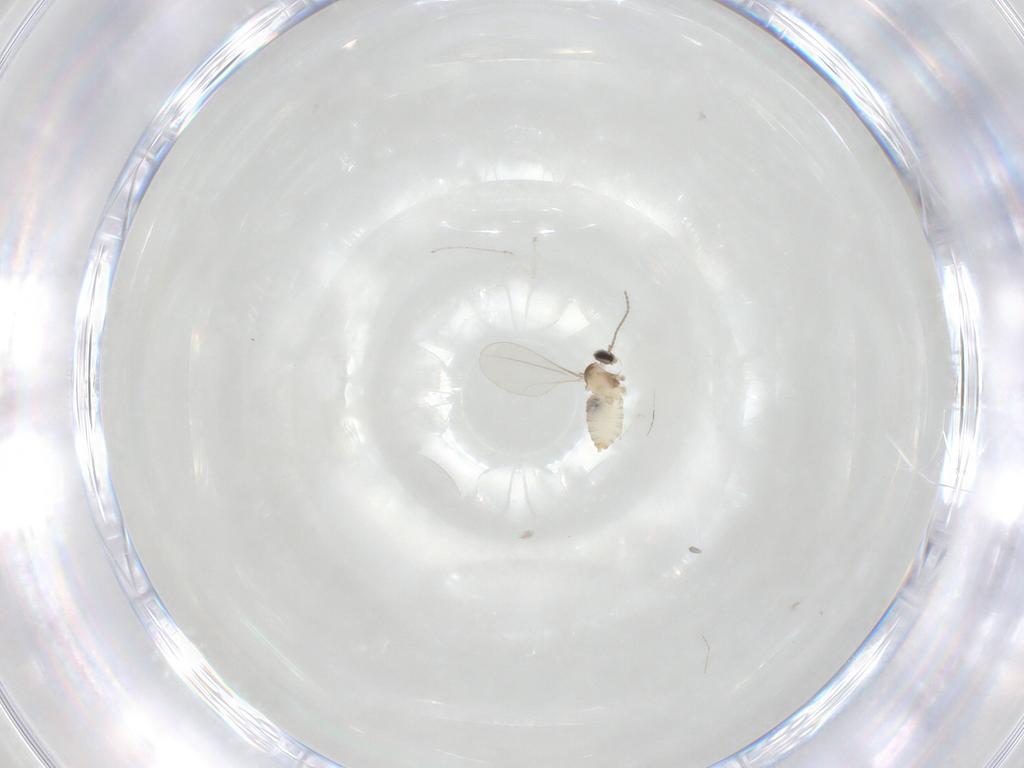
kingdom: Animalia
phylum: Arthropoda
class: Insecta
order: Diptera
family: Cecidomyiidae
